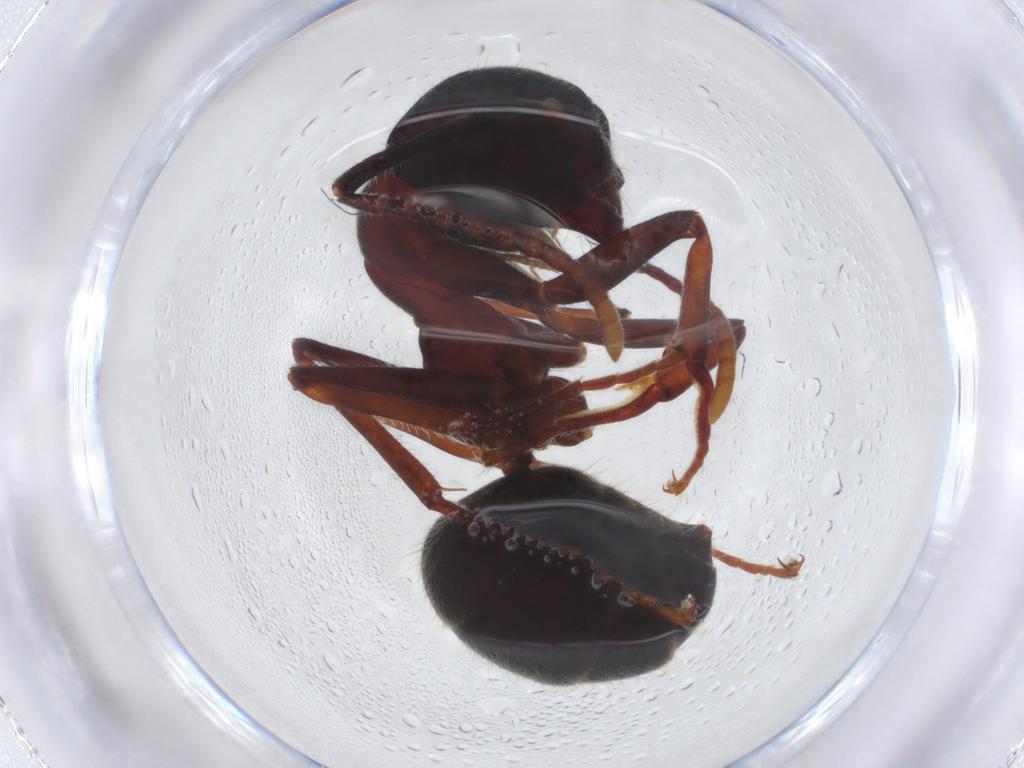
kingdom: Animalia
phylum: Arthropoda
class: Insecta
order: Hymenoptera
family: Formicidae
